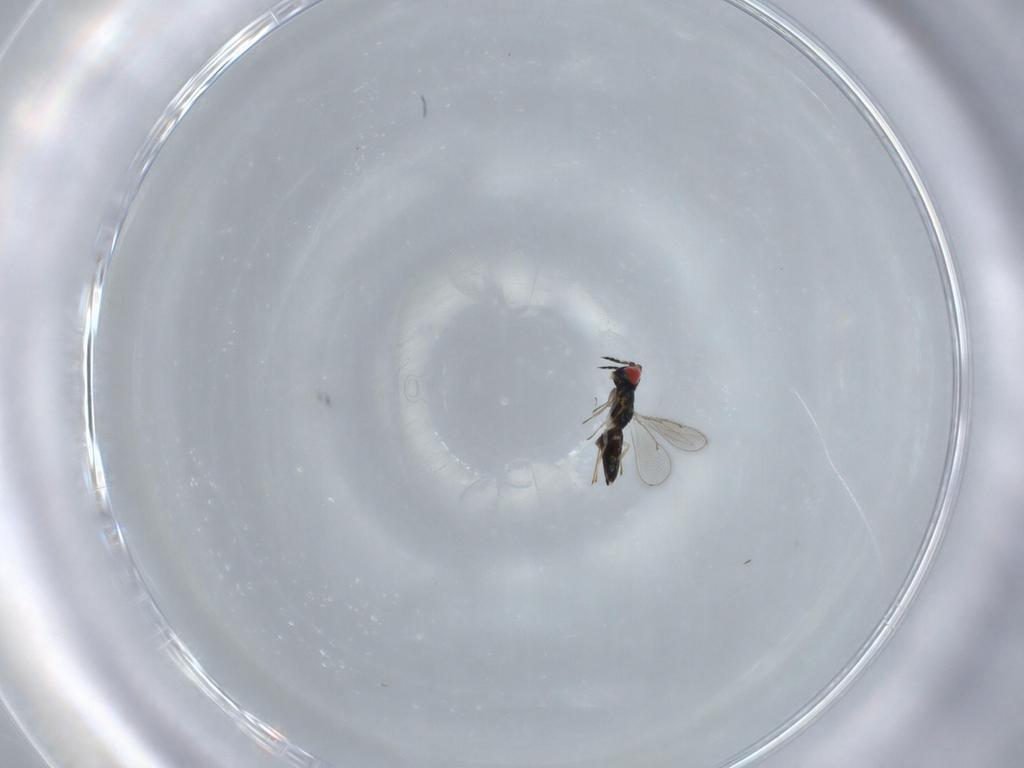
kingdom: Animalia
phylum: Arthropoda
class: Insecta
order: Hymenoptera
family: Eulophidae
